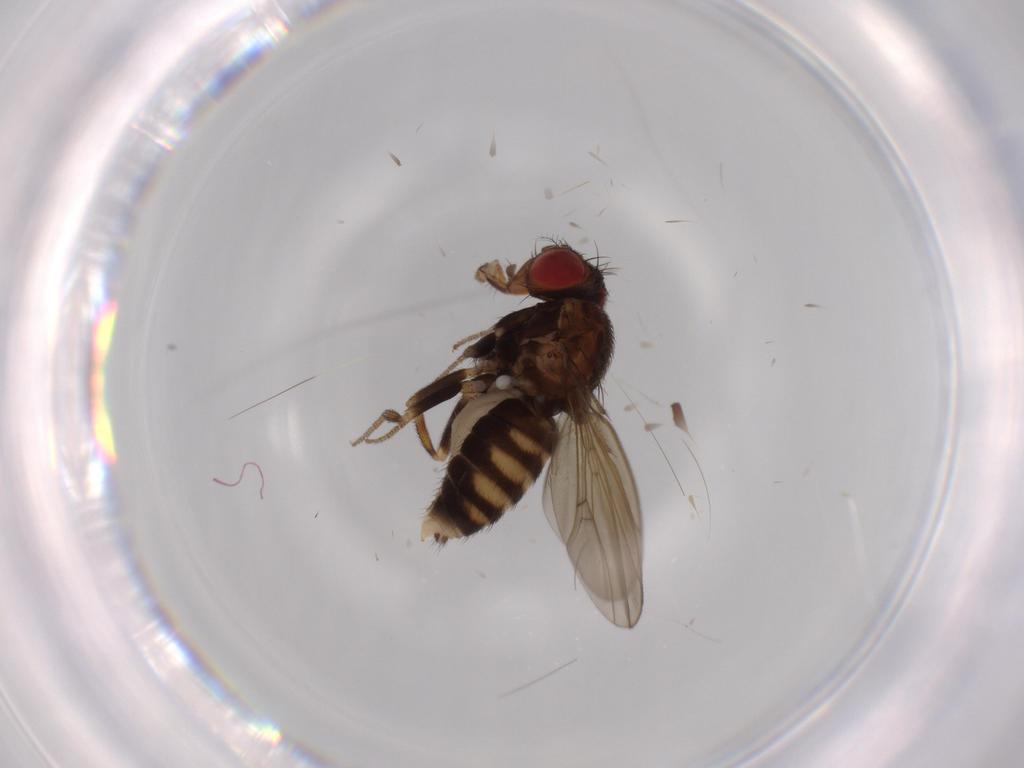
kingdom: Animalia
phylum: Arthropoda
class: Insecta
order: Diptera
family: Drosophilidae
